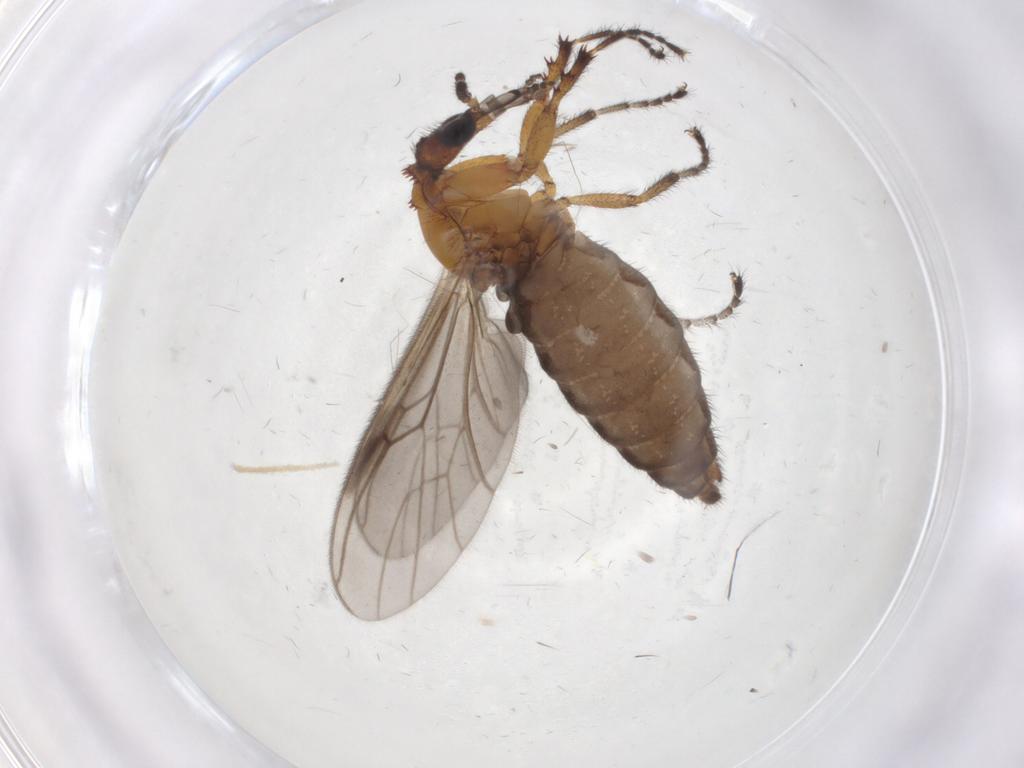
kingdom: Animalia
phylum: Arthropoda
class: Insecta
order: Diptera
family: Bibionidae
